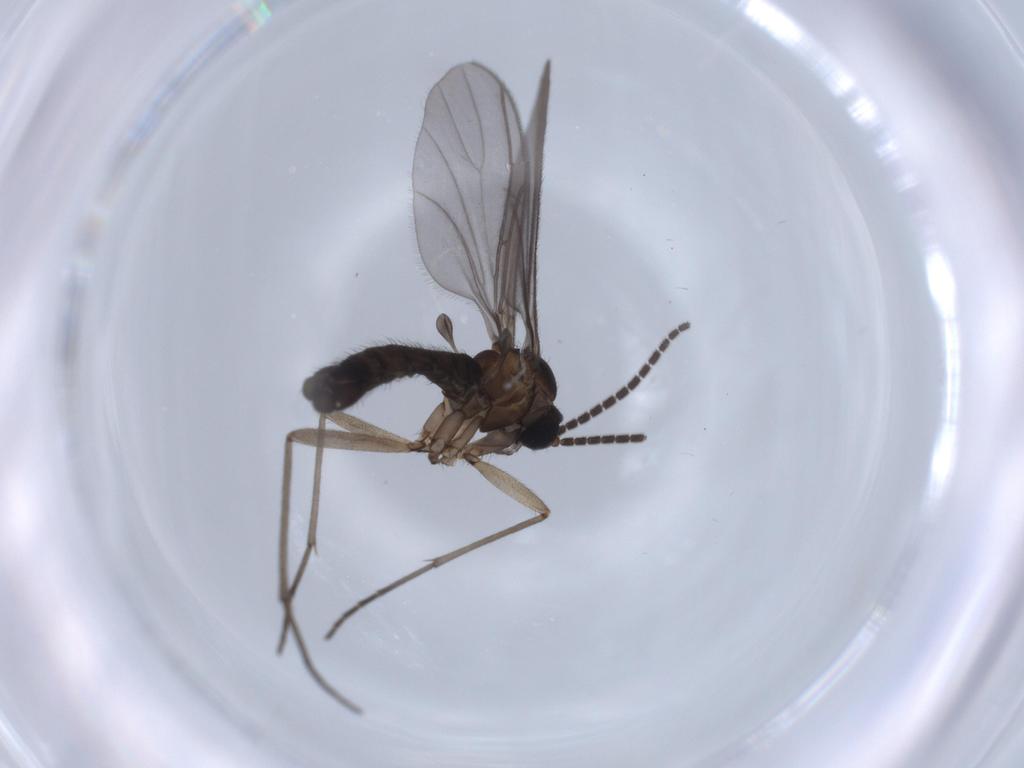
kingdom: Animalia
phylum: Arthropoda
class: Insecta
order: Diptera
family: Sciaridae
